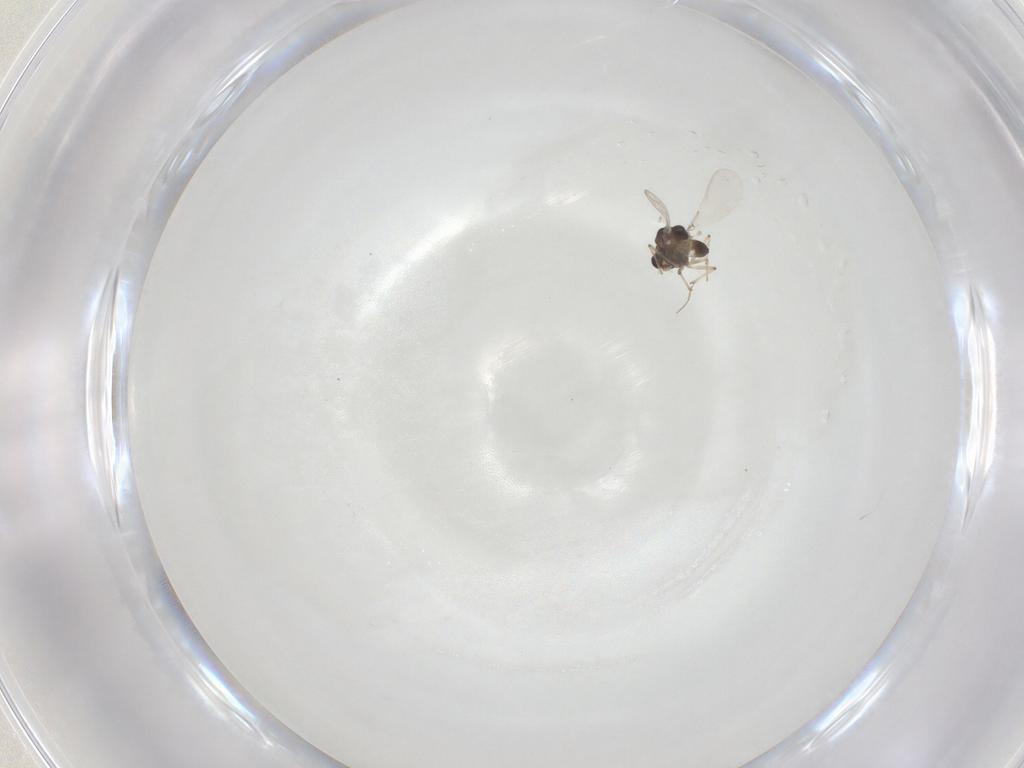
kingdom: Animalia
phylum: Arthropoda
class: Insecta
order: Diptera
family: Chironomidae
